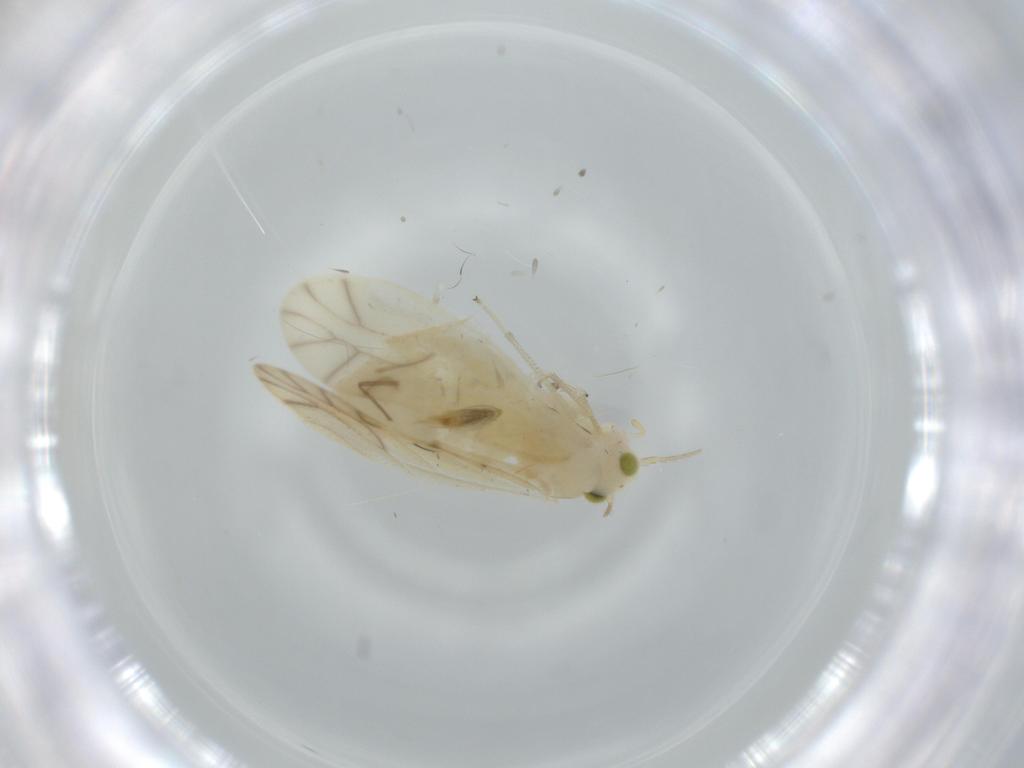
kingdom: Animalia
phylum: Arthropoda
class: Insecta
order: Psocodea
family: Caeciliusidae
